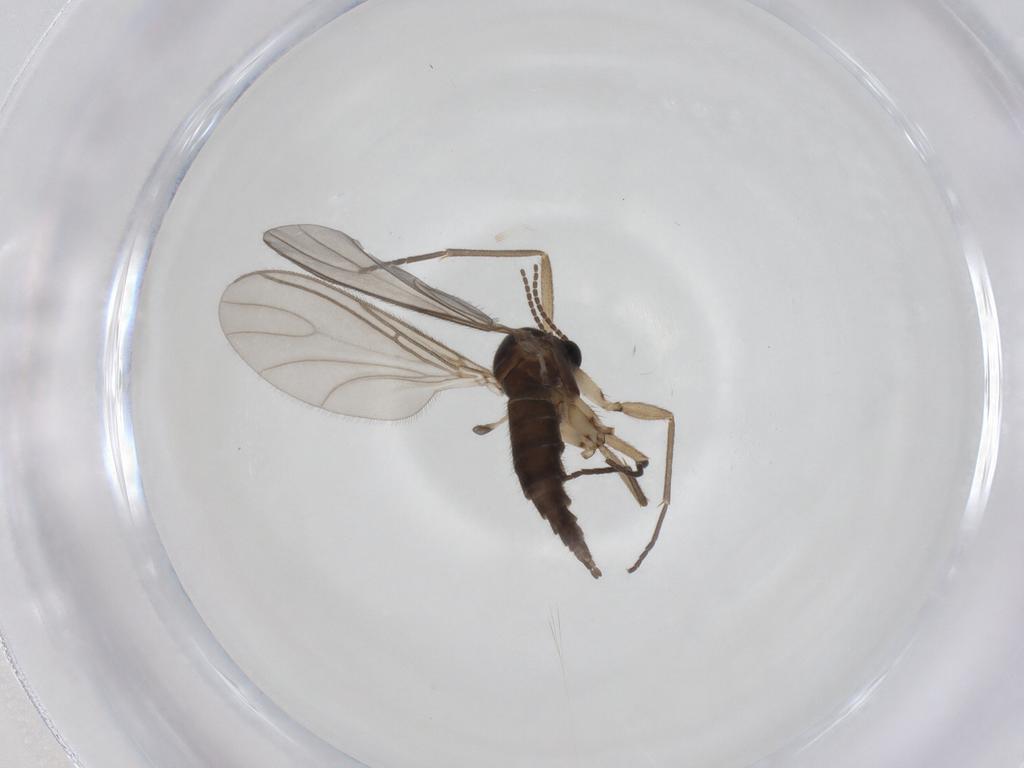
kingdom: Animalia
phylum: Arthropoda
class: Insecta
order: Diptera
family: Sciaridae
